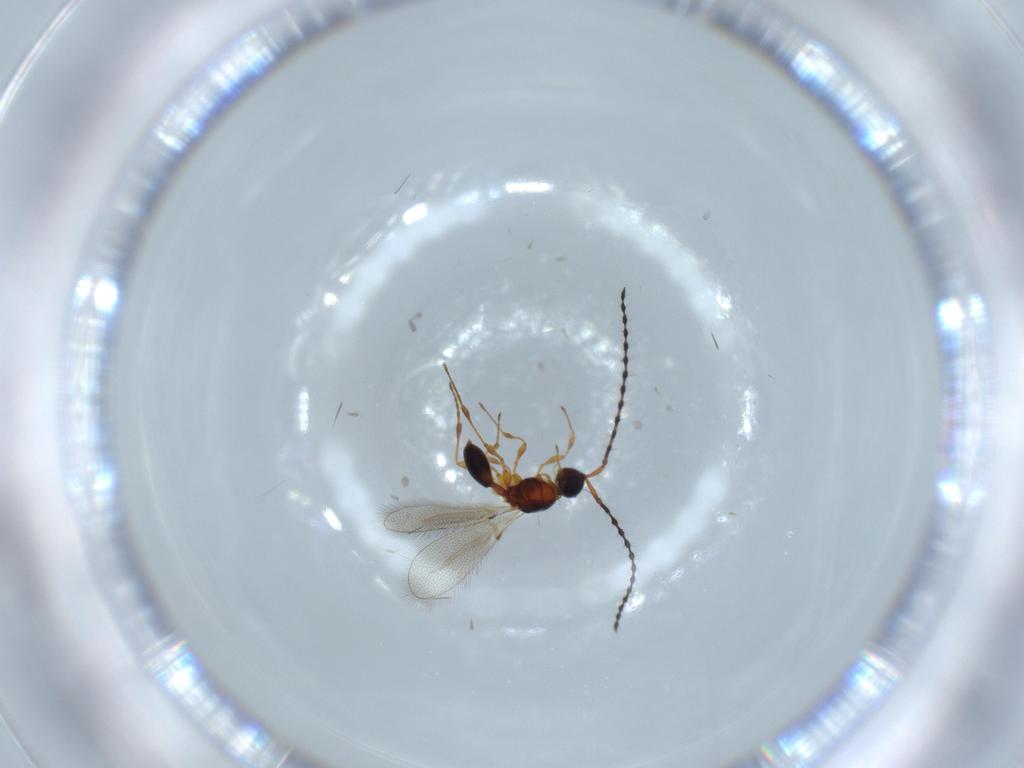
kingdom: Animalia
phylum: Arthropoda
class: Insecta
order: Hymenoptera
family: Diapriidae
